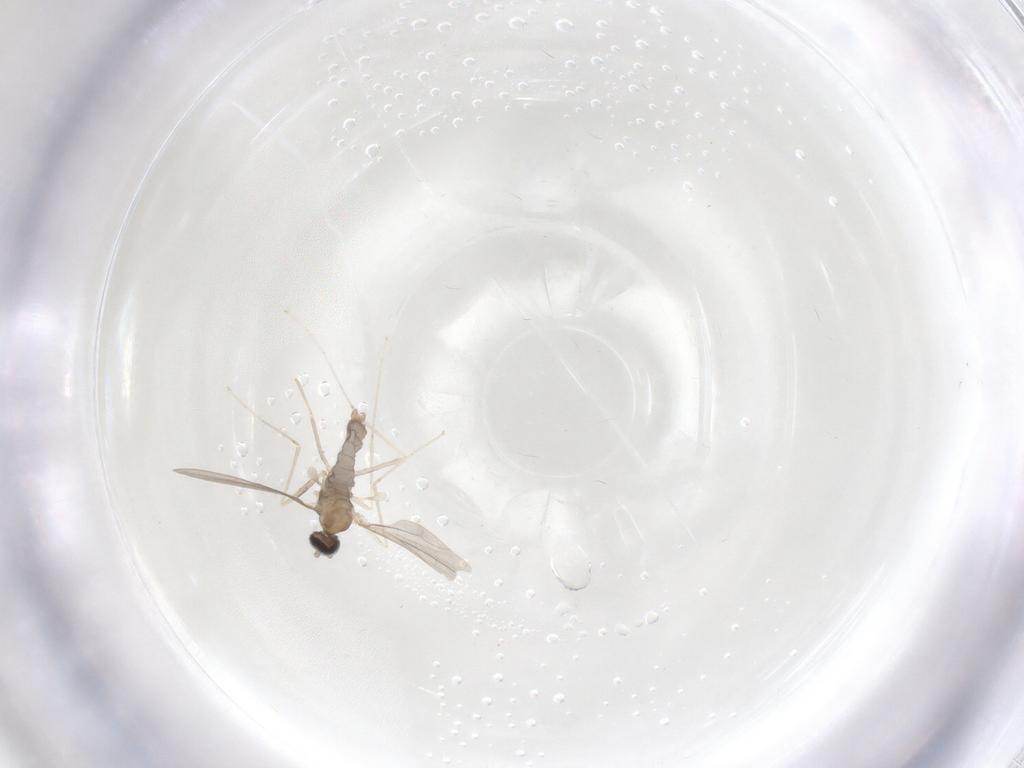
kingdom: Animalia
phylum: Arthropoda
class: Insecta
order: Diptera
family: Cecidomyiidae
